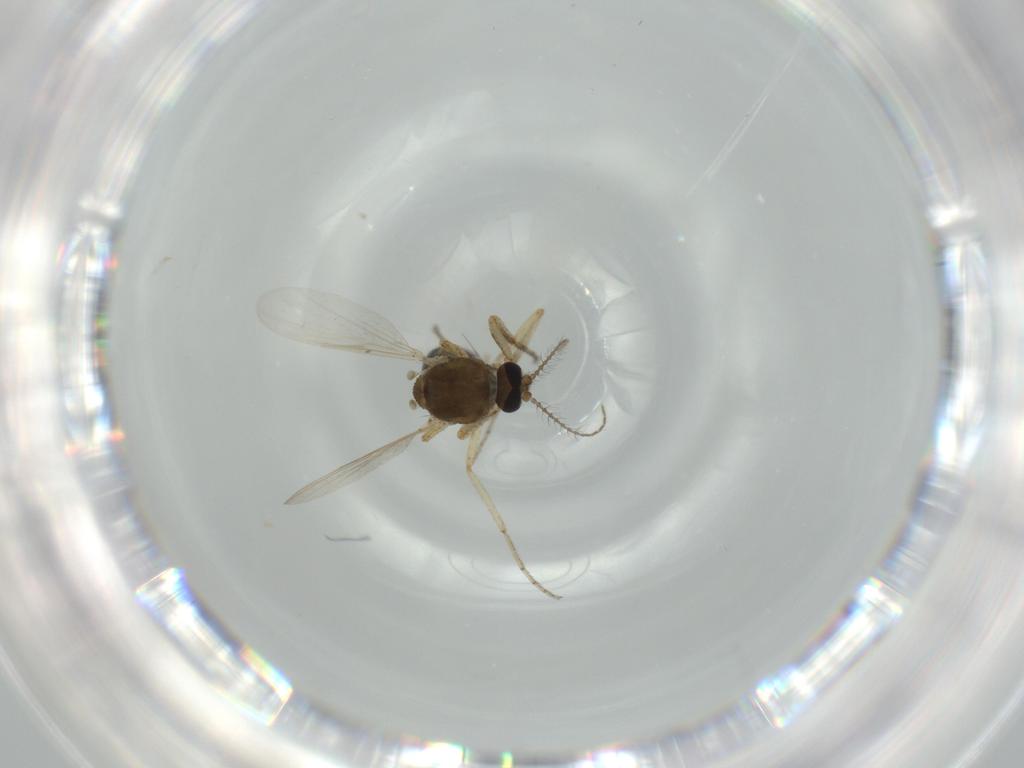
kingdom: Animalia
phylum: Arthropoda
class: Insecta
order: Diptera
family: Ceratopogonidae
